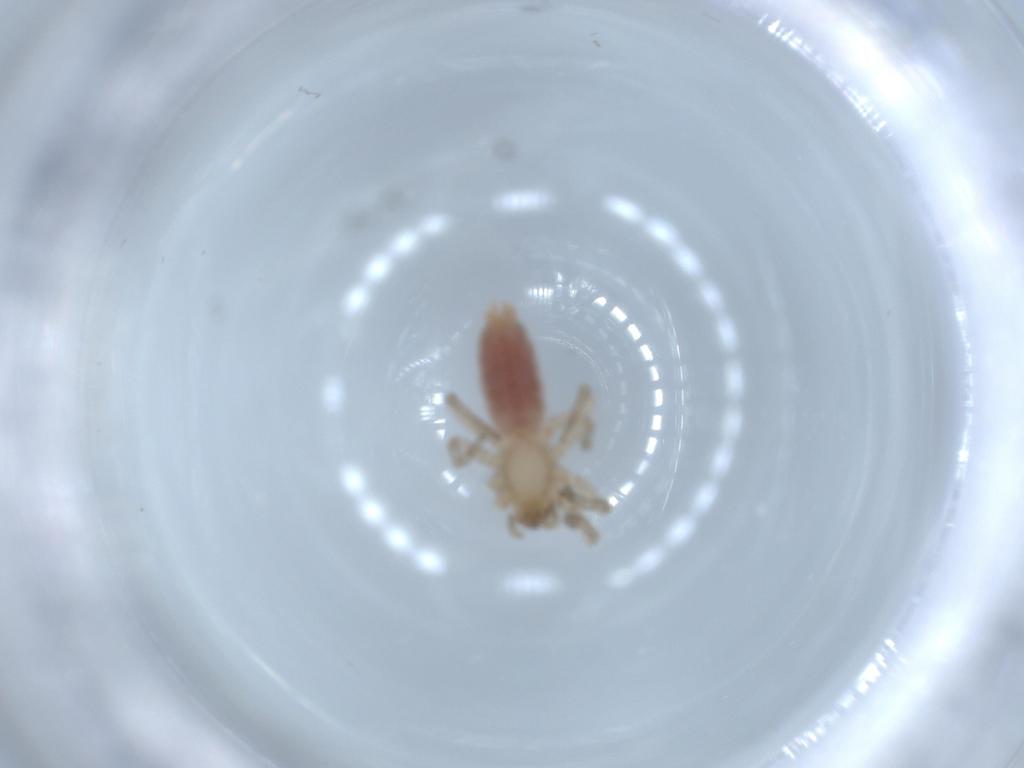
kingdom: Animalia
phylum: Arthropoda
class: Arachnida
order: Araneae
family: Gnaphosidae
